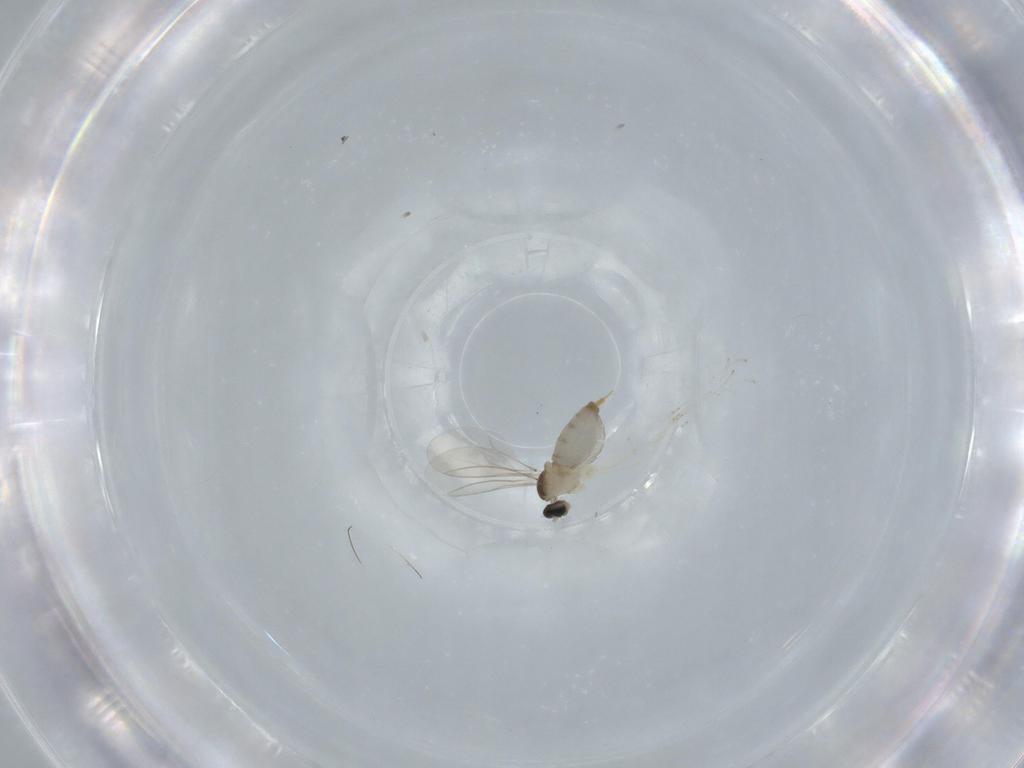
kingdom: Animalia
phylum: Arthropoda
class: Insecta
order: Diptera
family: Cecidomyiidae
